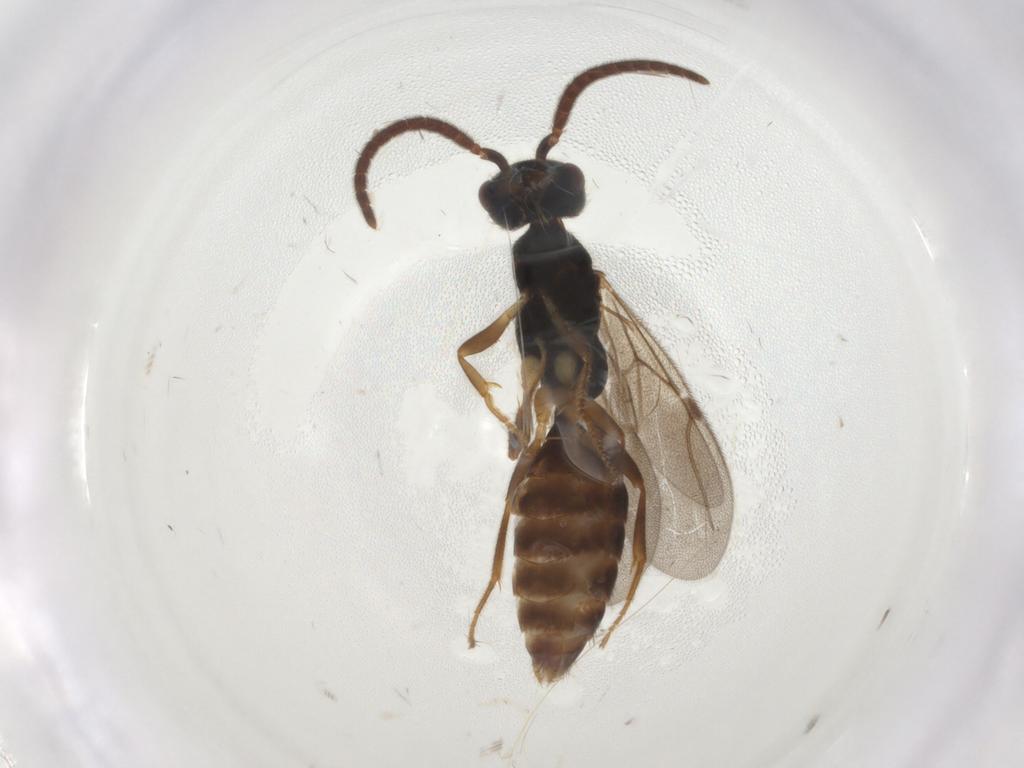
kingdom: Animalia
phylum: Arthropoda
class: Insecta
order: Hymenoptera
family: Bethylidae
